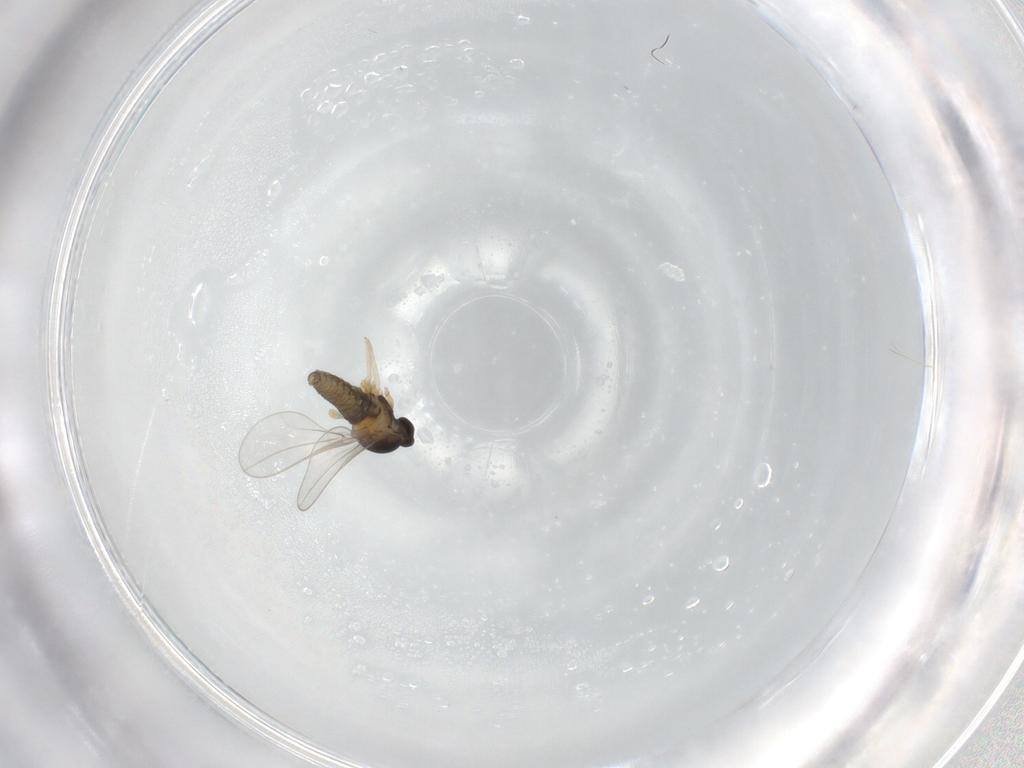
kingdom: Animalia
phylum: Arthropoda
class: Insecta
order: Diptera
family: Cecidomyiidae
